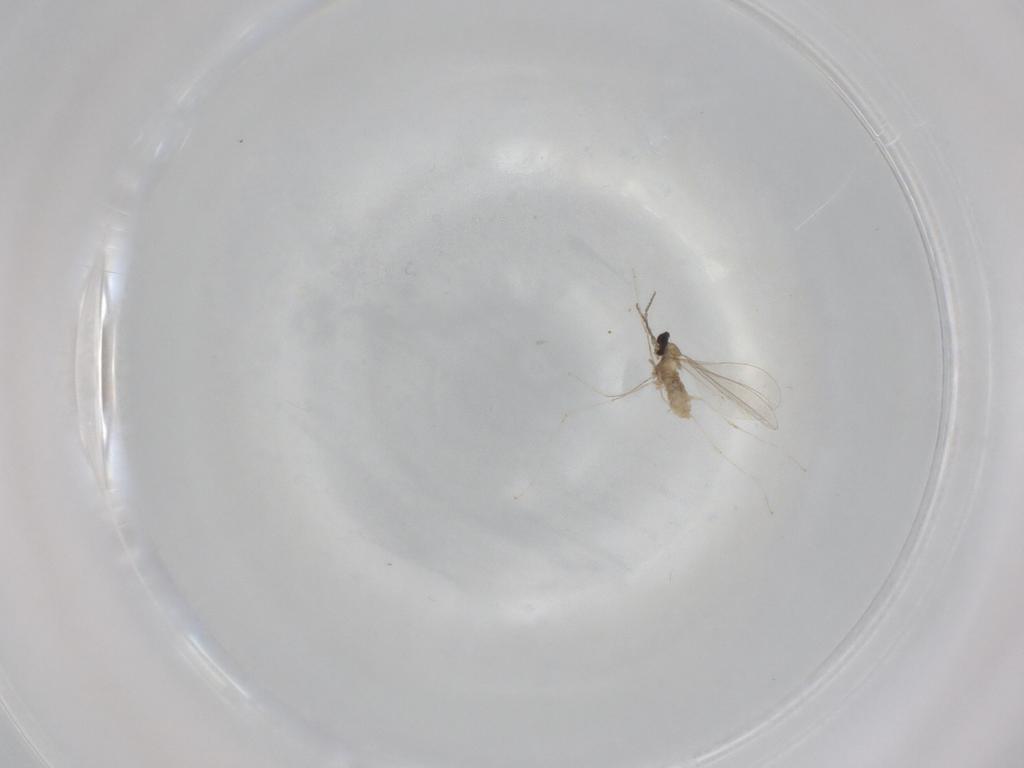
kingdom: Animalia
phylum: Arthropoda
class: Insecta
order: Diptera
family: Cecidomyiidae
